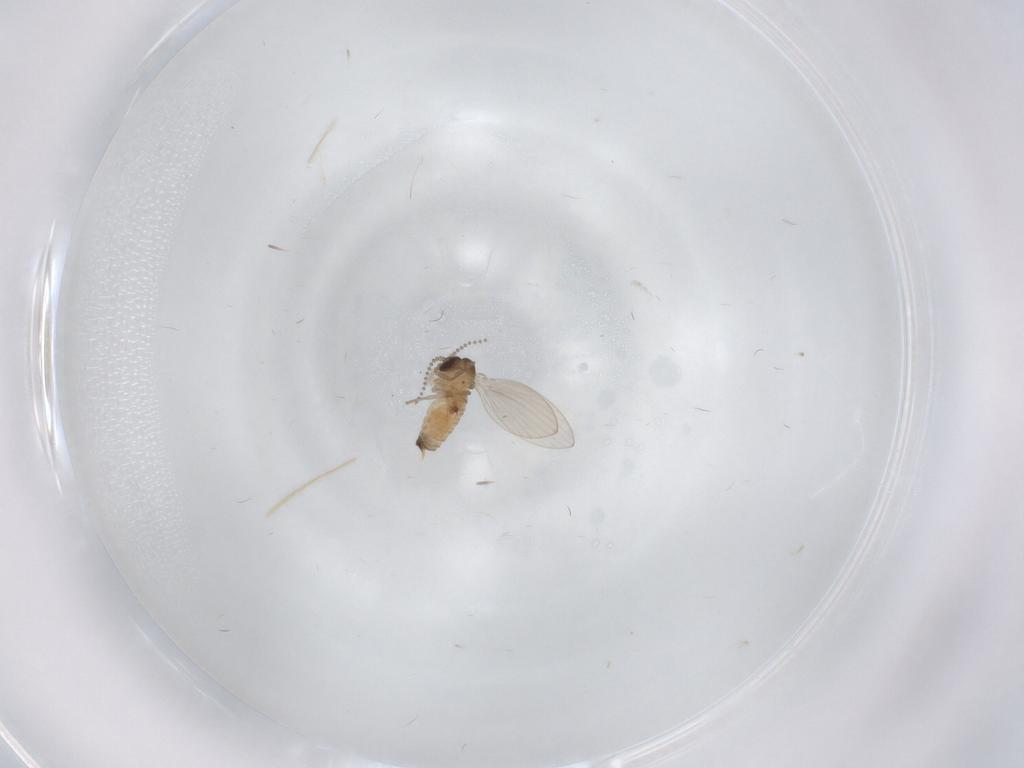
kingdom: Animalia
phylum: Arthropoda
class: Insecta
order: Diptera
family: Psychodidae
